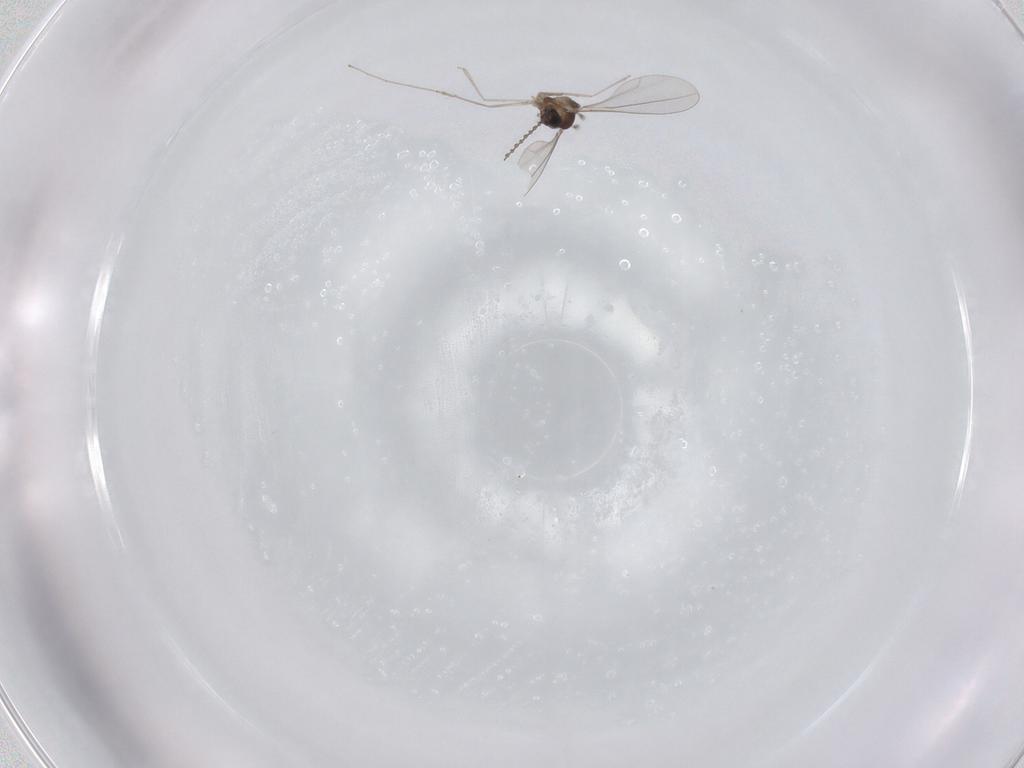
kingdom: Animalia
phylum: Arthropoda
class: Insecta
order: Diptera
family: Cecidomyiidae
